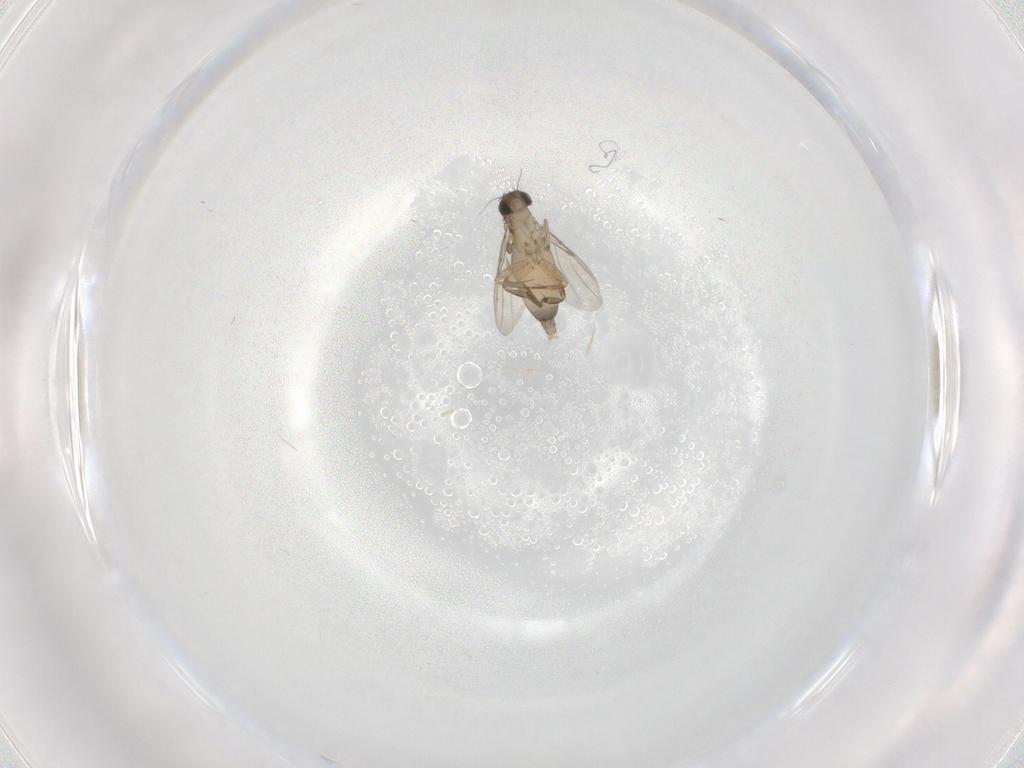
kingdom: Animalia
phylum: Arthropoda
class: Insecta
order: Diptera
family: Phoridae
